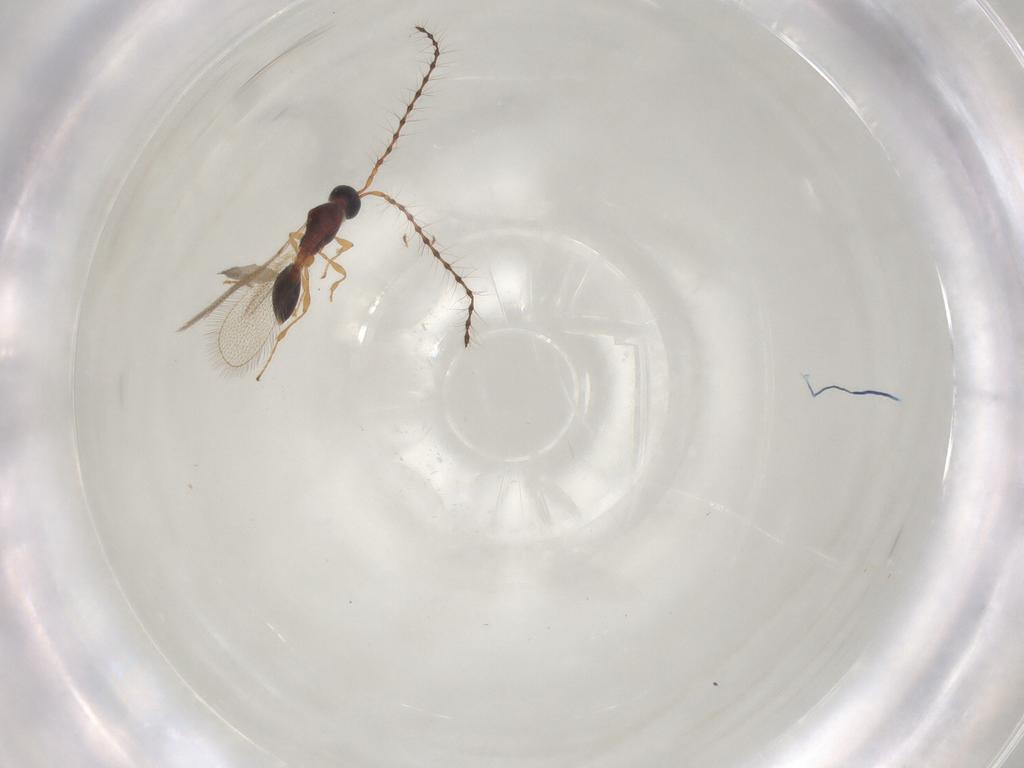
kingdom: Animalia
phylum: Arthropoda
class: Insecta
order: Hymenoptera
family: Diapriidae
